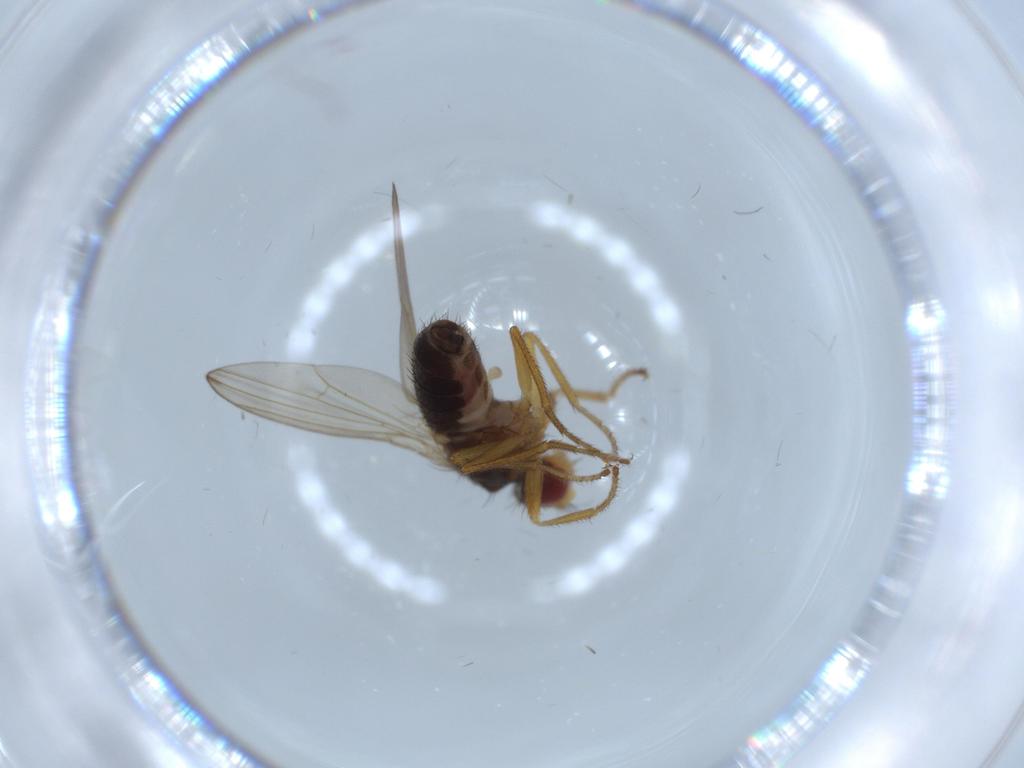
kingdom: Animalia
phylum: Arthropoda
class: Insecta
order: Diptera
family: Drosophilidae
